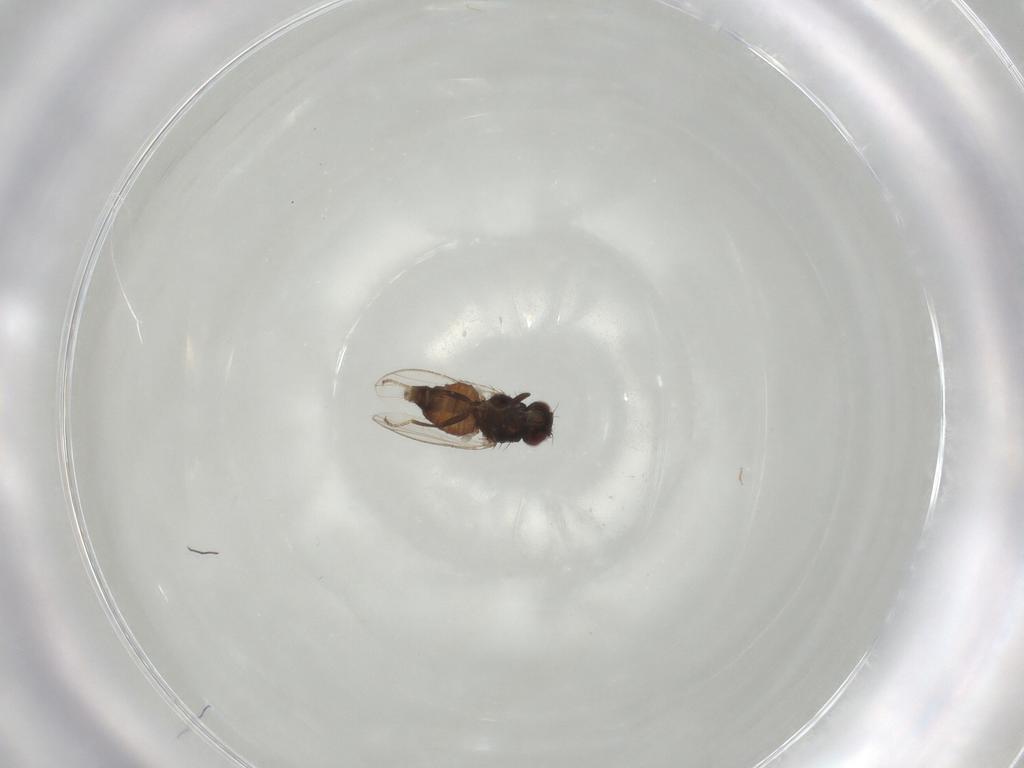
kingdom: Animalia
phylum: Arthropoda
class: Insecta
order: Diptera
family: Carnidae
